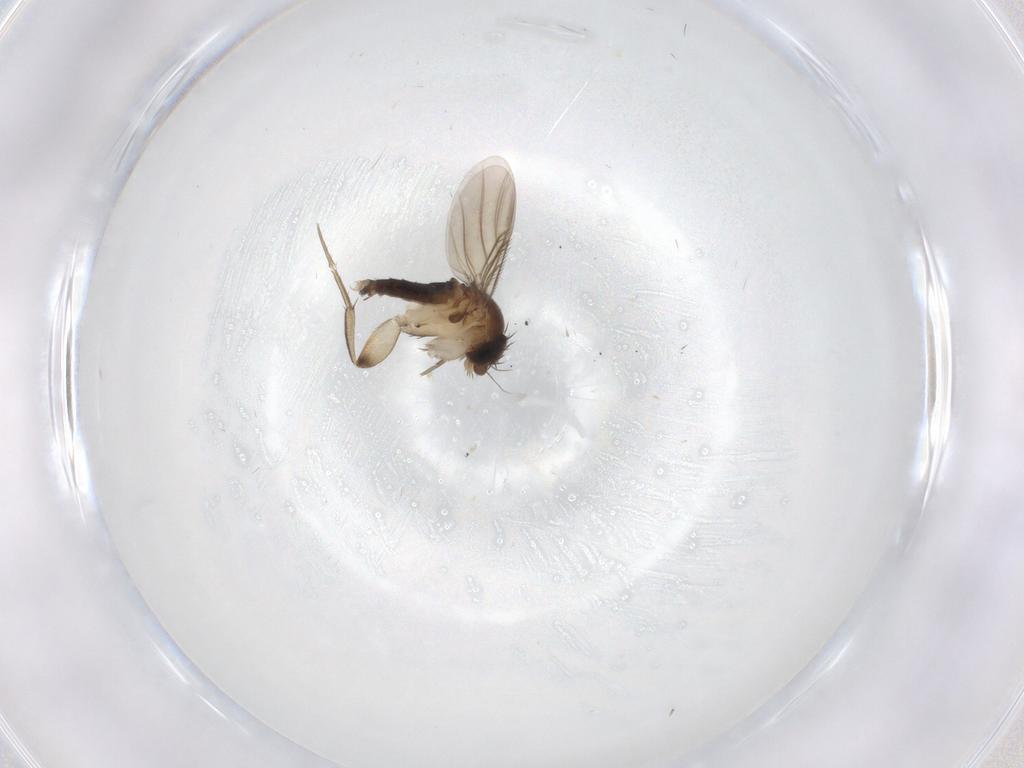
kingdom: Animalia
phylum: Arthropoda
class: Insecta
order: Diptera
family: Phoridae
